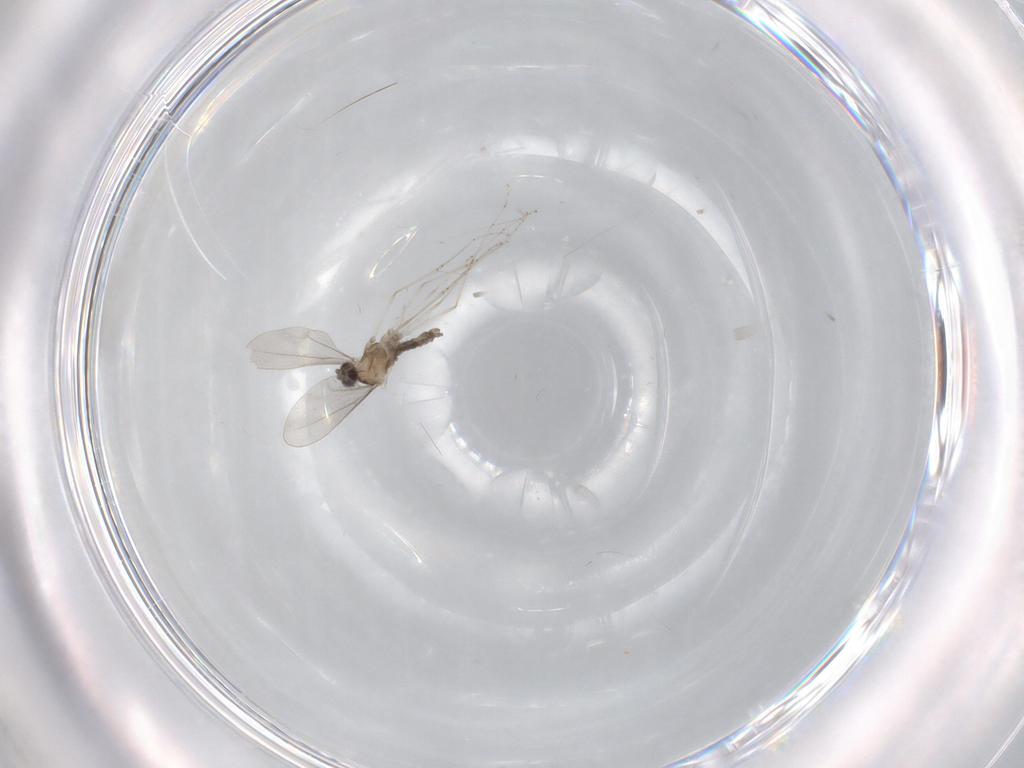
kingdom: Animalia
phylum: Arthropoda
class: Insecta
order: Diptera
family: Cecidomyiidae
